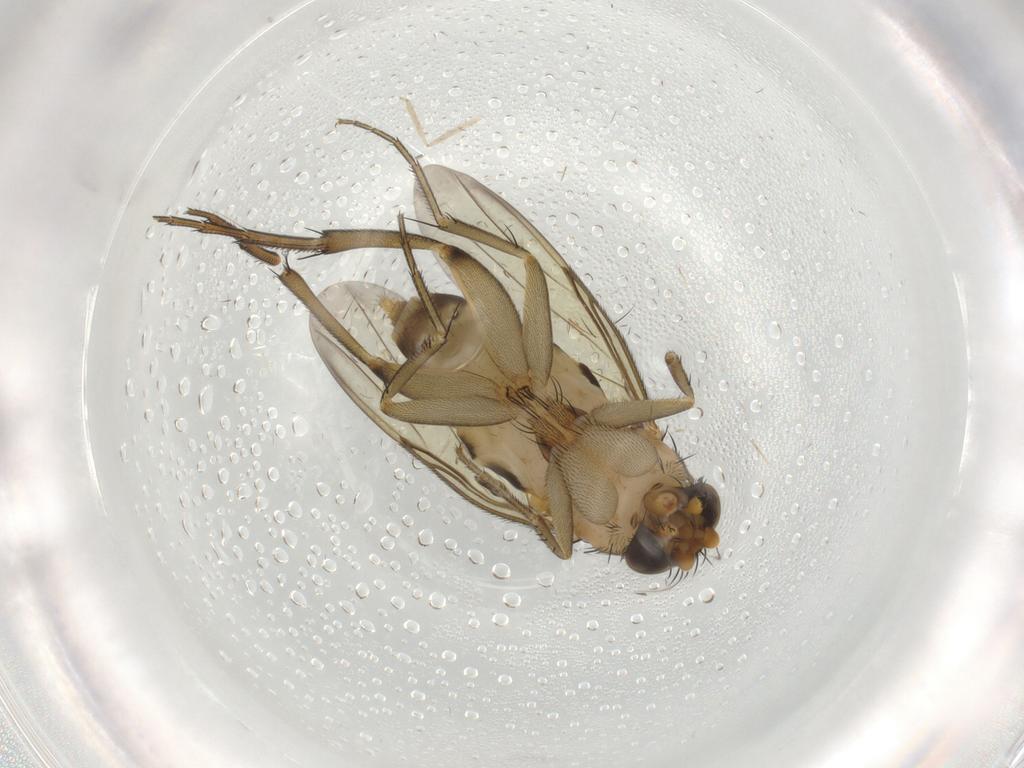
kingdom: Animalia
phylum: Arthropoda
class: Insecta
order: Diptera
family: Cecidomyiidae
